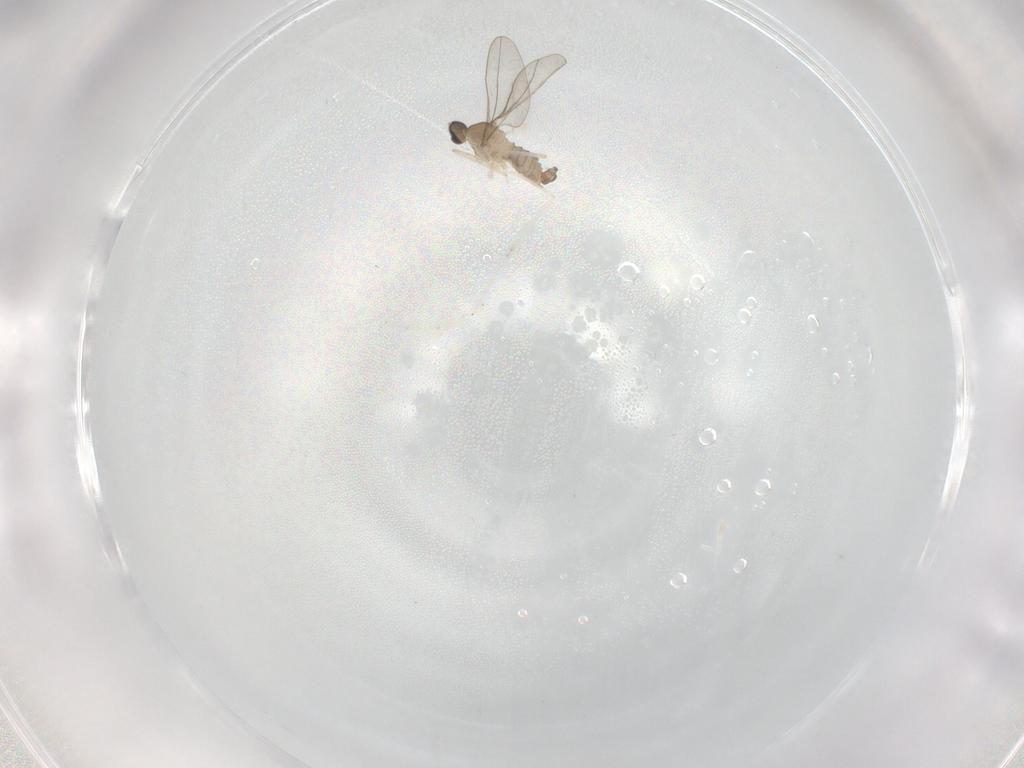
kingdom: Animalia
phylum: Arthropoda
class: Insecta
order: Diptera
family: Cecidomyiidae
